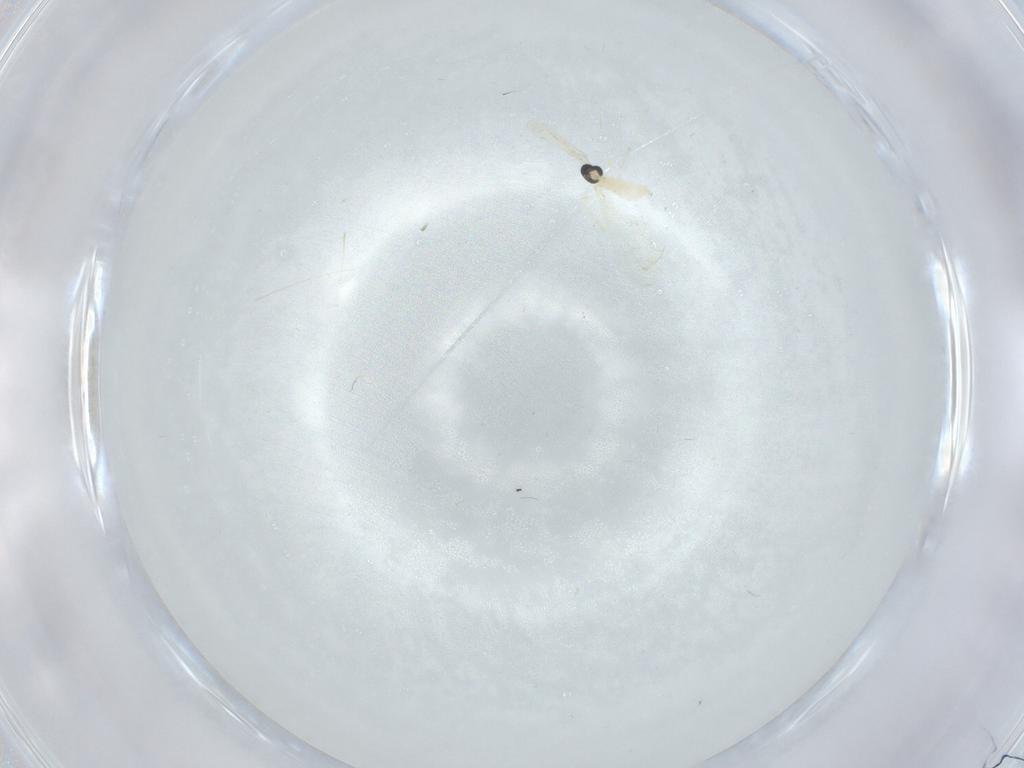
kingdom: Animalia
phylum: Arthropoda
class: Insecta
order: Diptera
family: Cecidomyiidae
